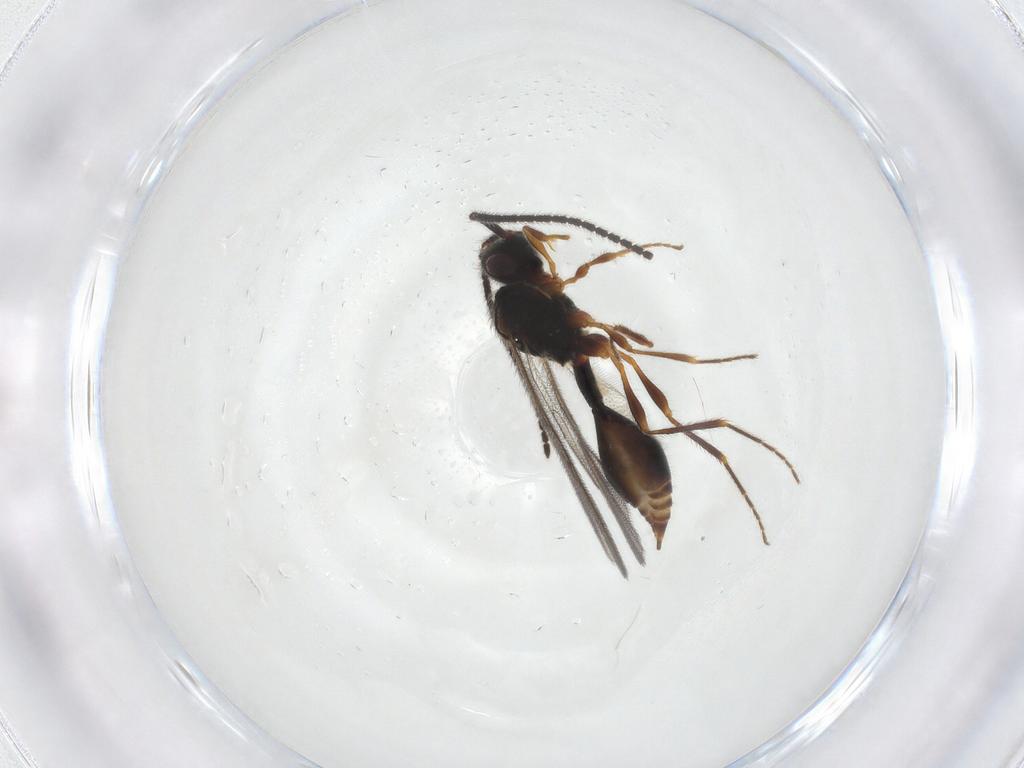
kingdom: Animalia
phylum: Arthropoda
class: Insecta
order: Hymenoptera
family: Diapriidae
